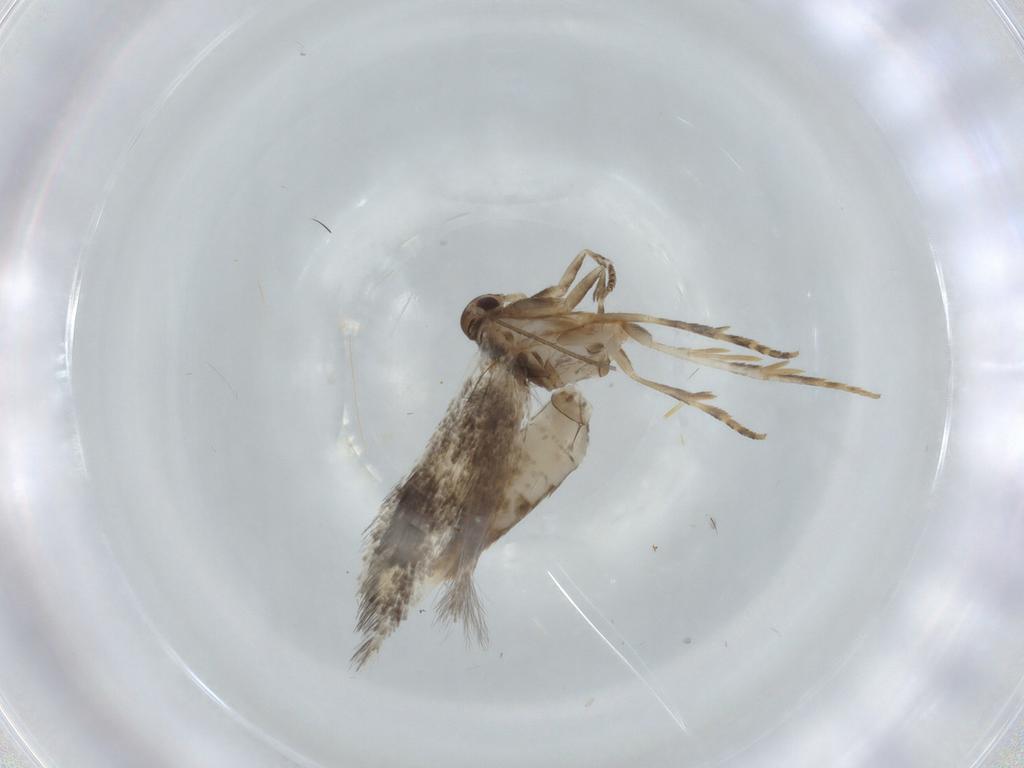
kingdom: Animalia
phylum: Arthropoda
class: Insecta
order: Lepidoptera
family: Elachistidae
